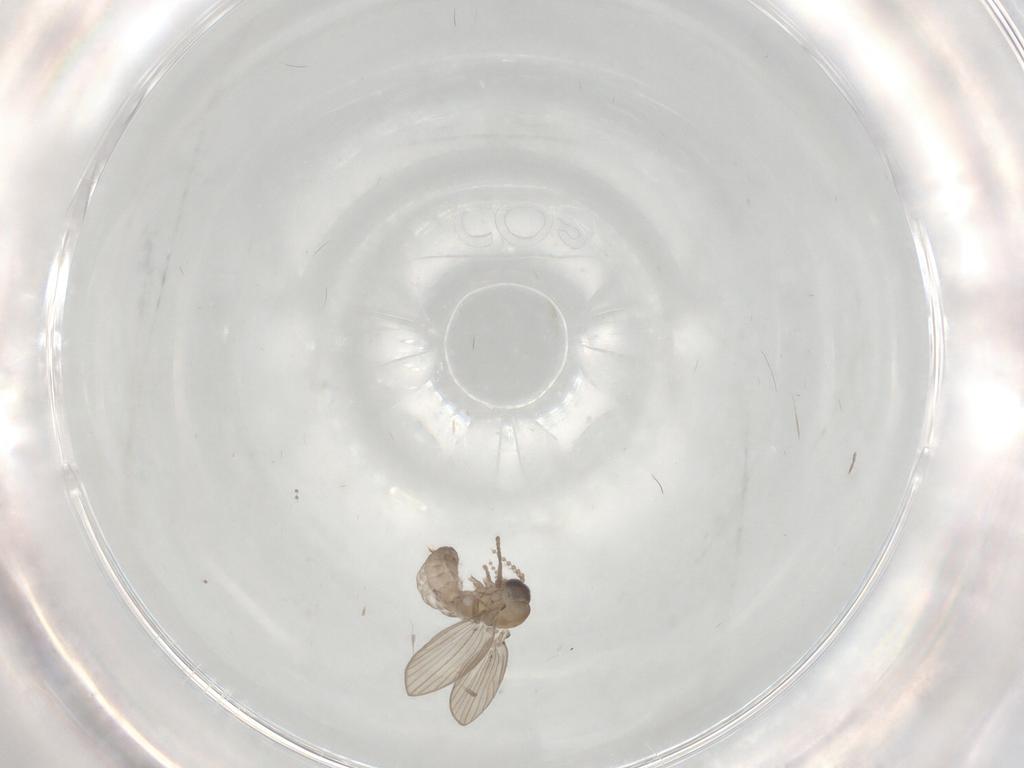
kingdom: Animalia
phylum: Arthropoda
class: Insecta
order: Diptera
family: Psychodidae
